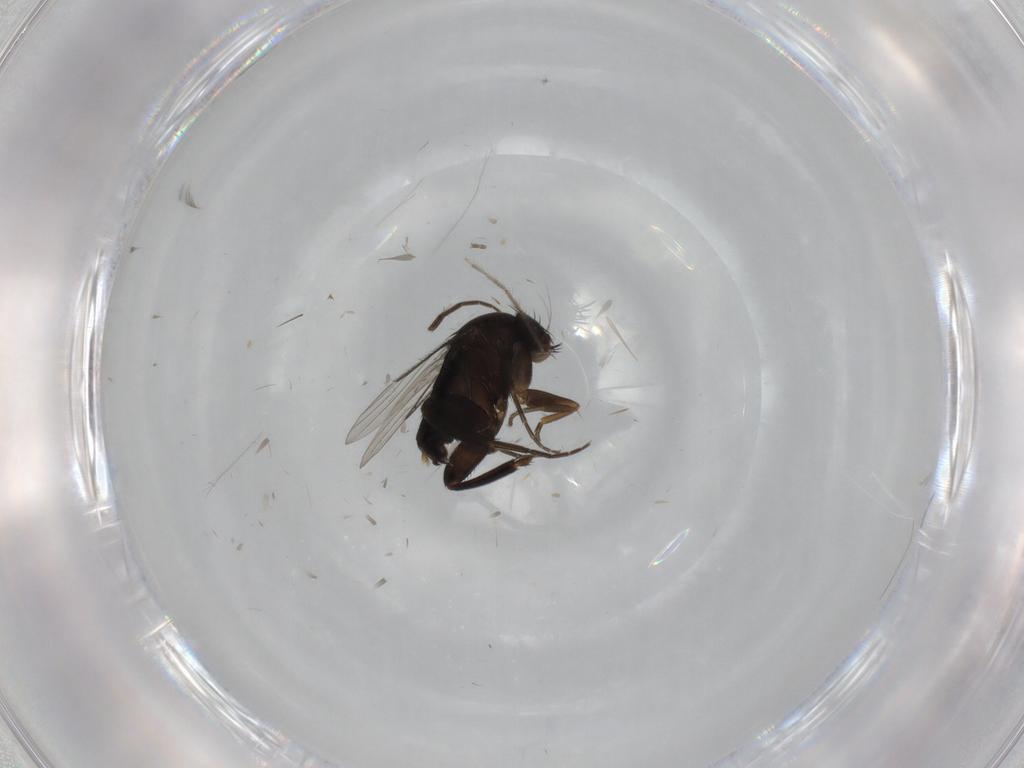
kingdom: Animalia
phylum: Arthropoda
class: Insecta
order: Diptera
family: Phoridae
